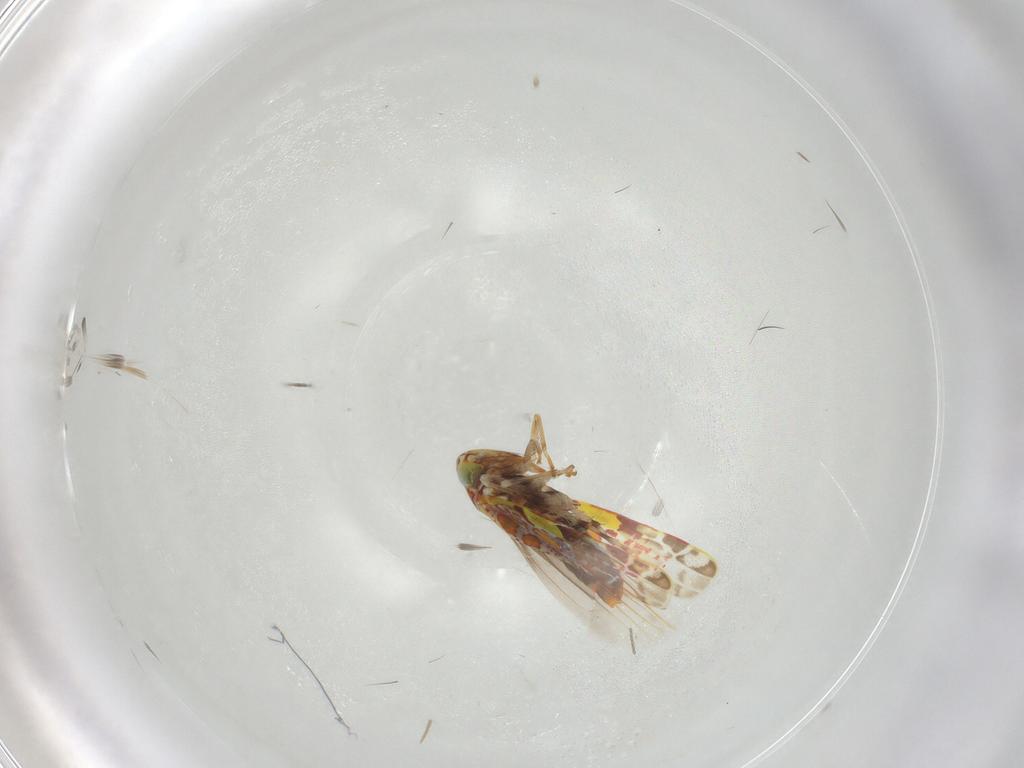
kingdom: Animalia
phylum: Arthropoda
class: Insecta
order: Hemiptera
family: Cicadellidae
